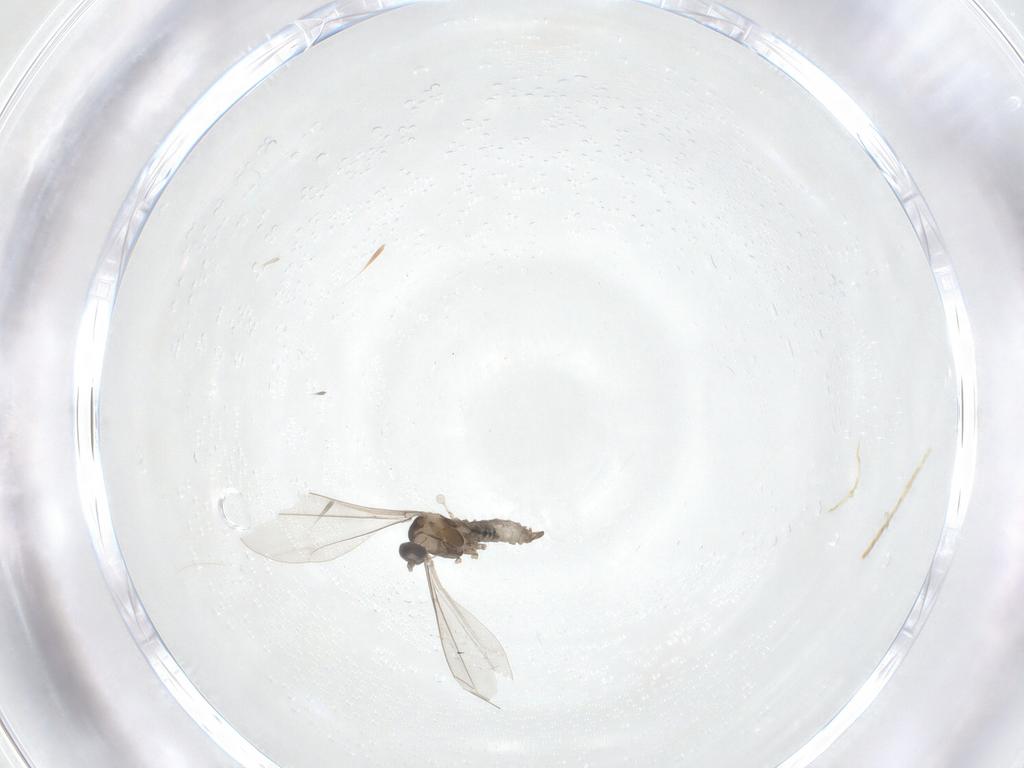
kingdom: Animalia
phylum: Arthropoda
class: Insecta
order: Diptera
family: Cecidomyiidae
